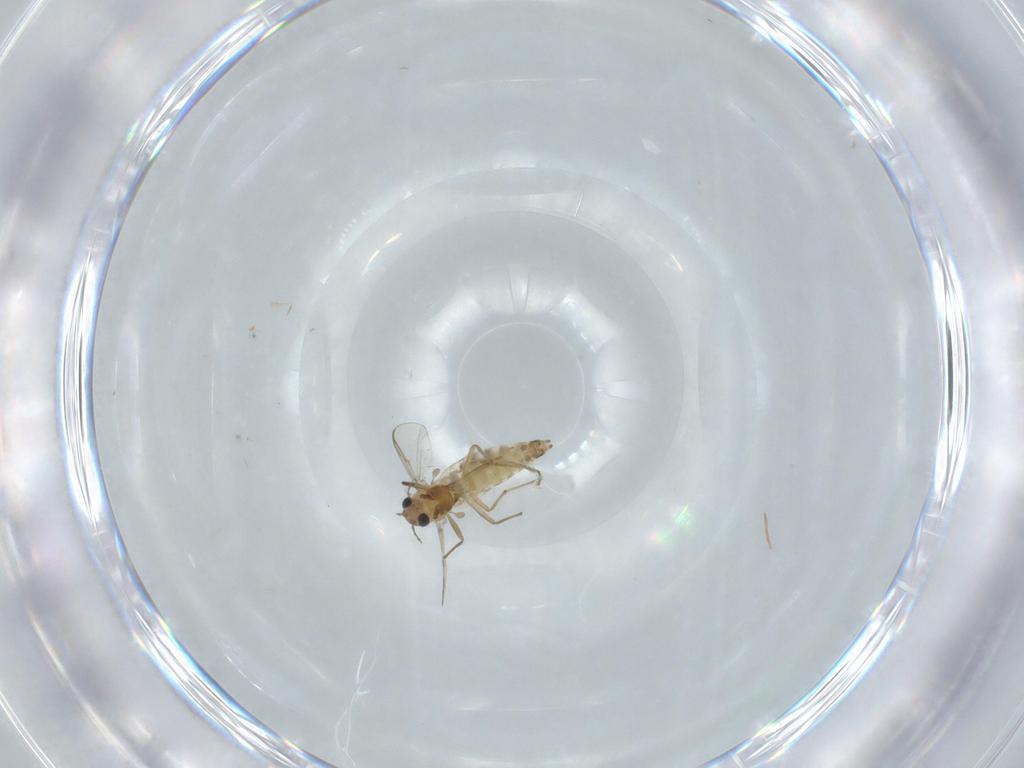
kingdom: Animalia
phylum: Arthropoda
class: Insecta
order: Diptera
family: Chironomidae
